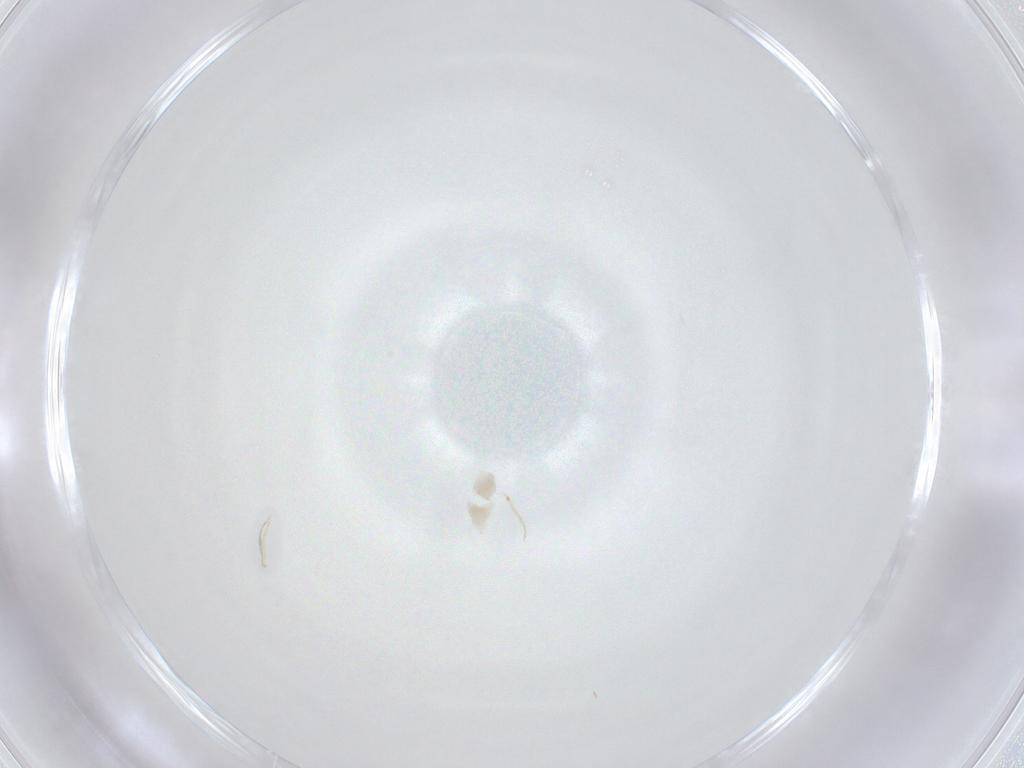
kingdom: Animalia
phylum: Arthropoda
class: Arachnida
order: Trombidiformes
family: Eupodidae
